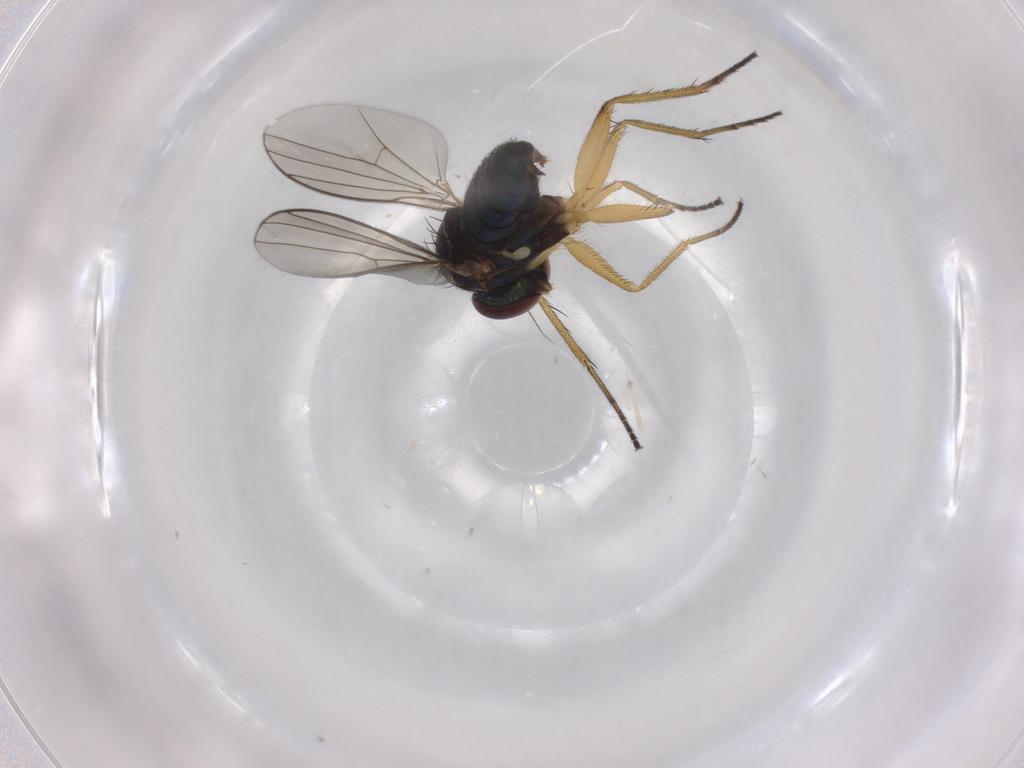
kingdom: Animalia
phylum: Arthropoda
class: Insecta
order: Diptera
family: Dolichopodidae
